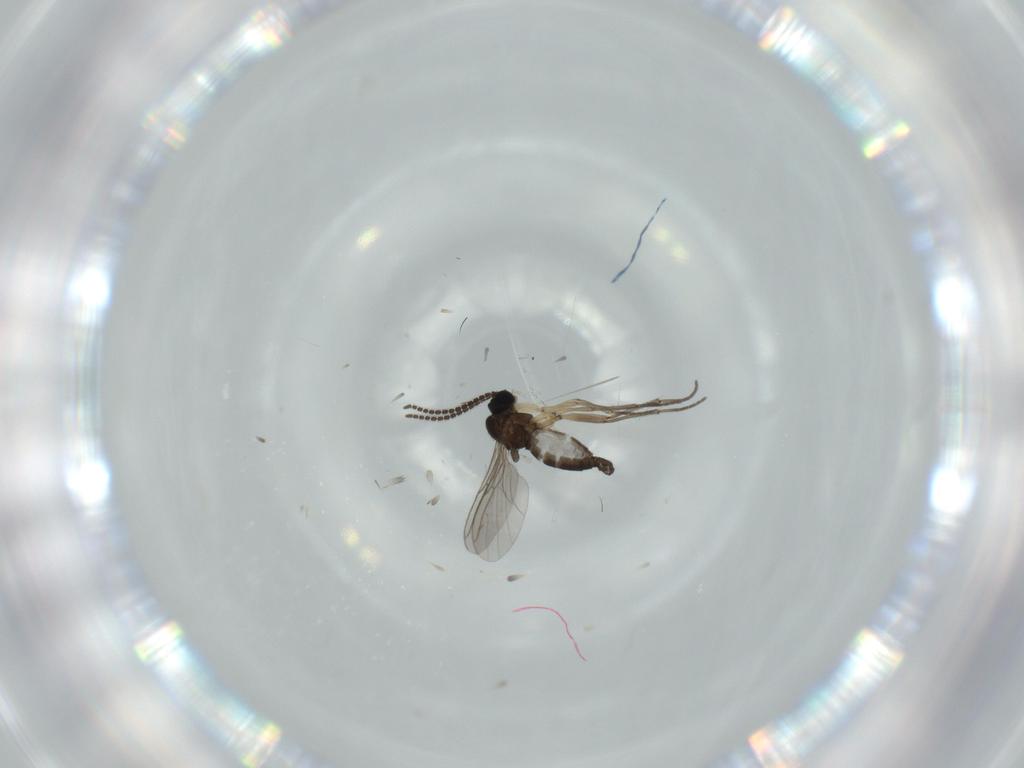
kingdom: Animalia
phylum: Arthropoda
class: Insecta
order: Diptera
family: Sciaridae
